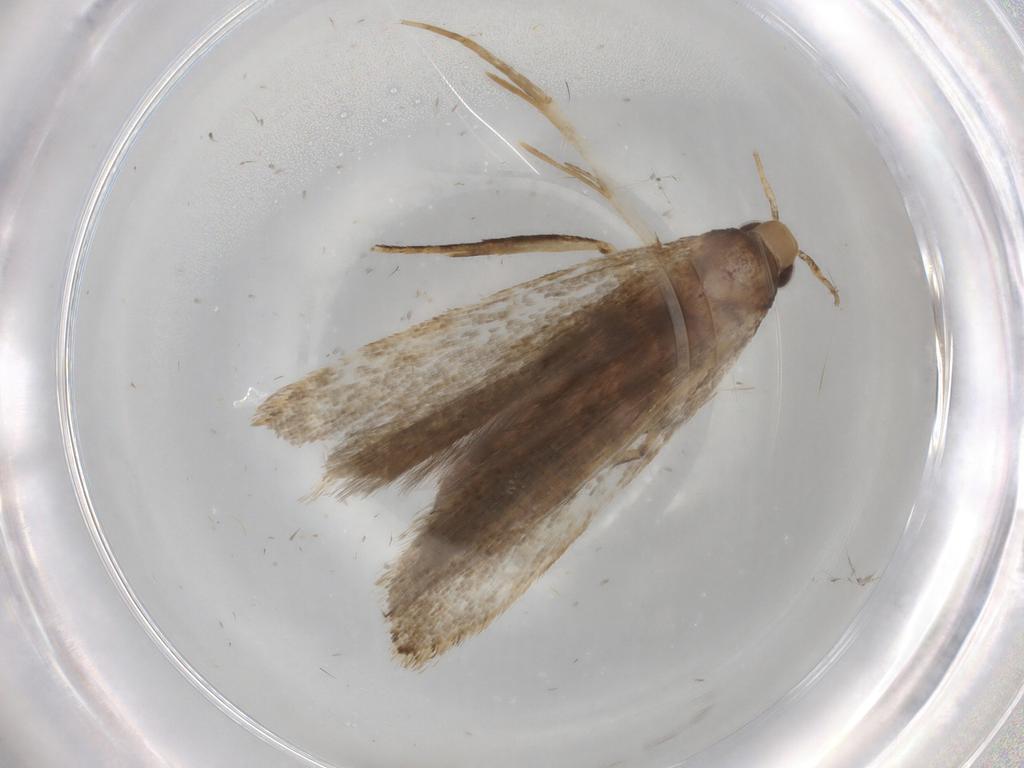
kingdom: Animalia
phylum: Arthropoda
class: Insecta
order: Lepidoptera
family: Gelechiidae
